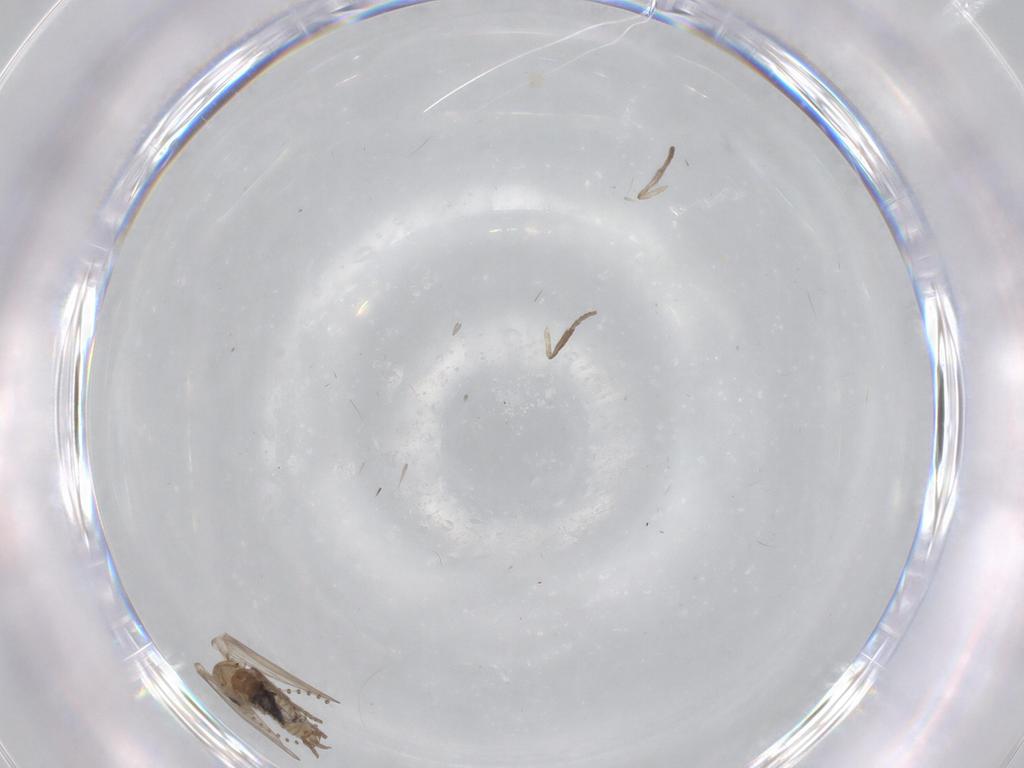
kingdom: Animalia
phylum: Arthropoda
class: Insecta
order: Diptera
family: Psychodidae
